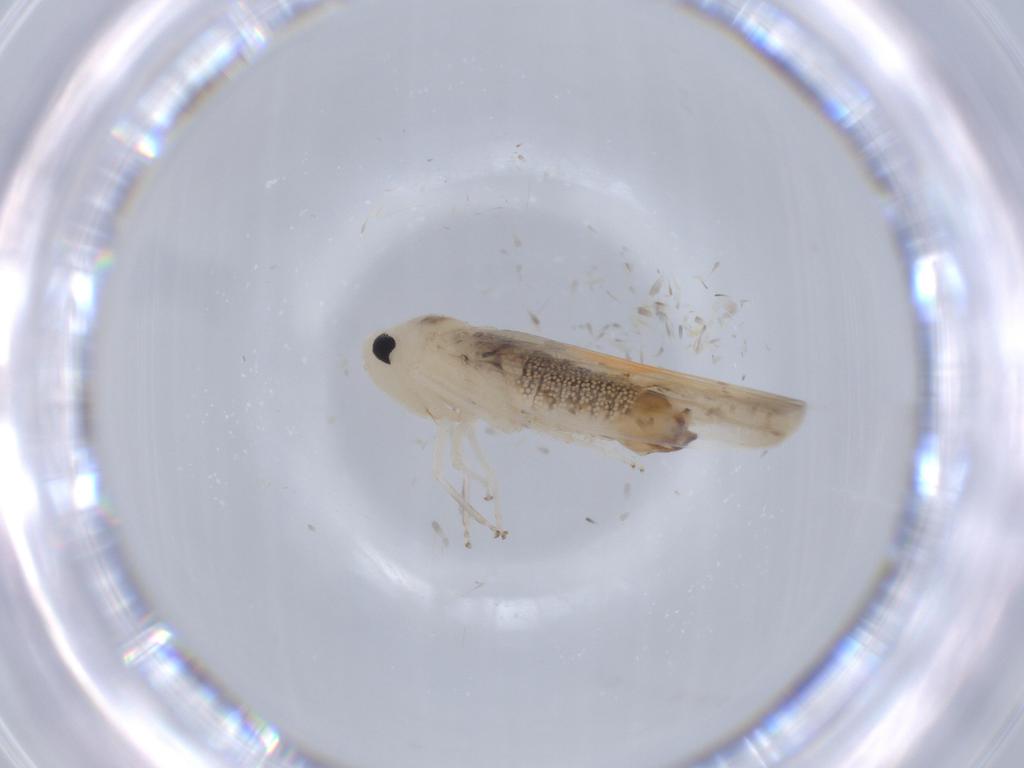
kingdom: Animalia
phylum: Arthropoda
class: Insecta
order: Hemiptera
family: Cicadellidae
